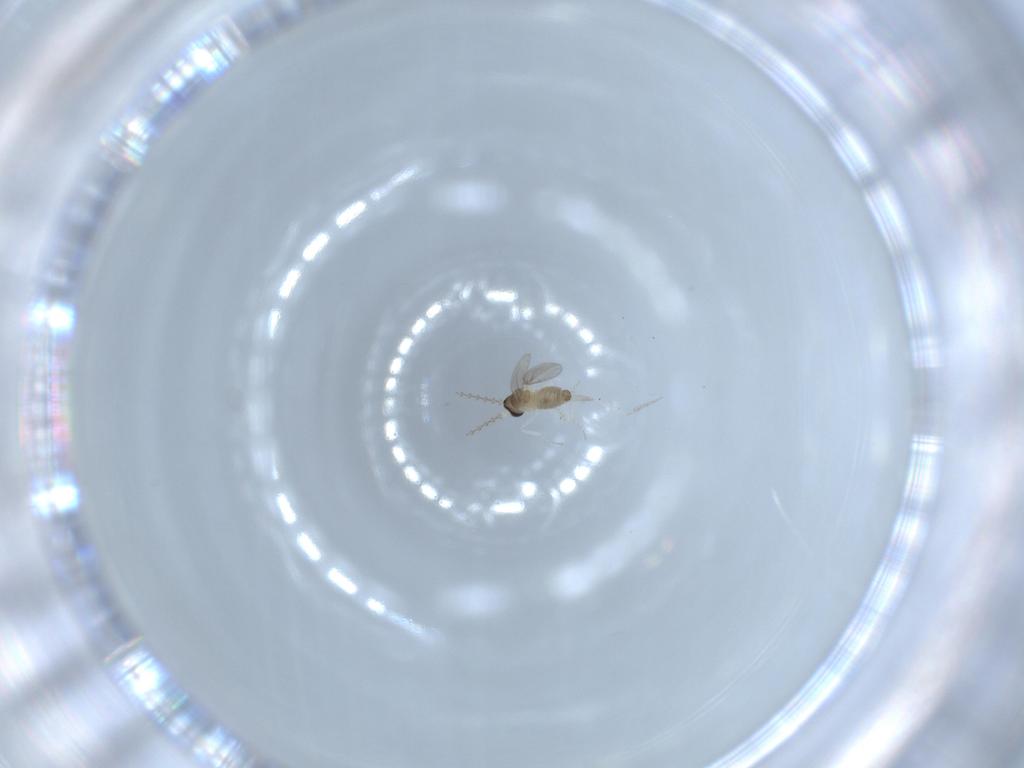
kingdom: Animalia
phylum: Arthropoda
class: Insecta
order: Diptera
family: Cecidomyiidae
